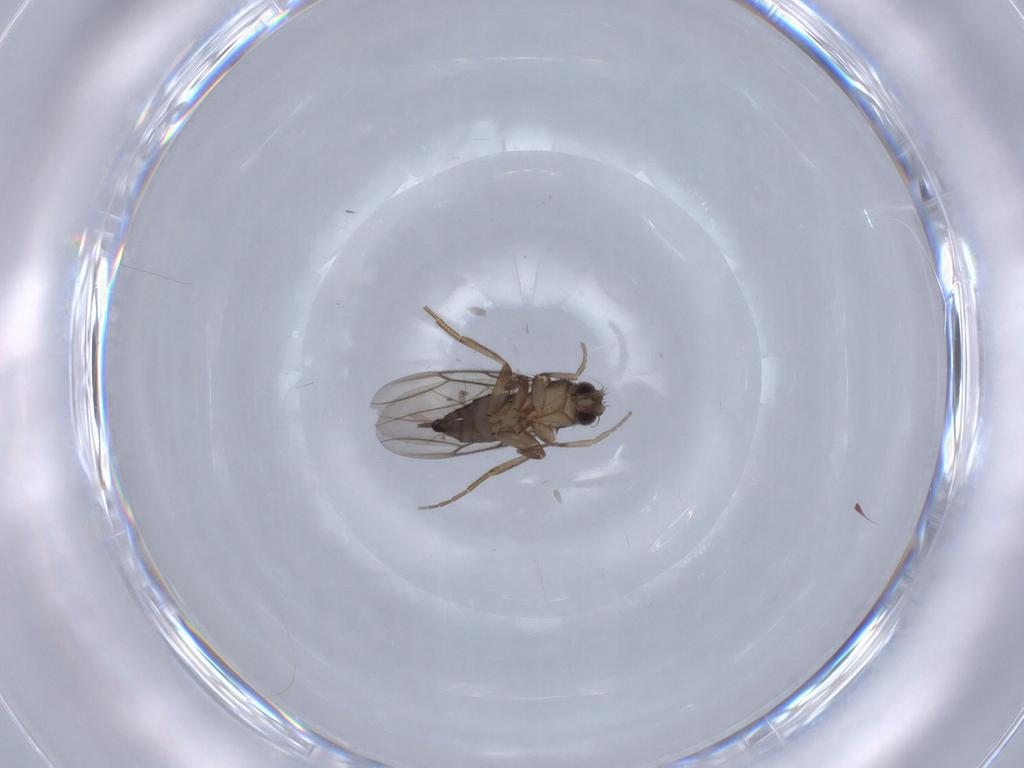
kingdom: Animalia
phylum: Arthropoda
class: Insecta
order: Diptera
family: Phoridae
